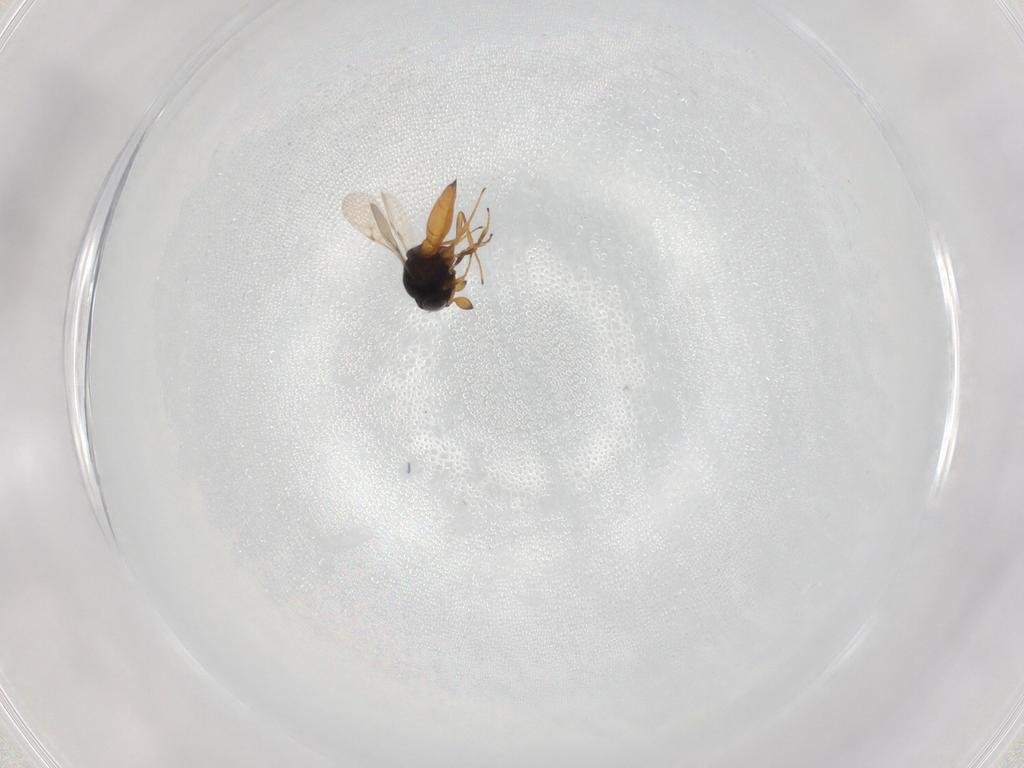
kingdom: Animalia
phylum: Arthropoda
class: Insecta
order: Hymenoptera
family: Scelionidae
